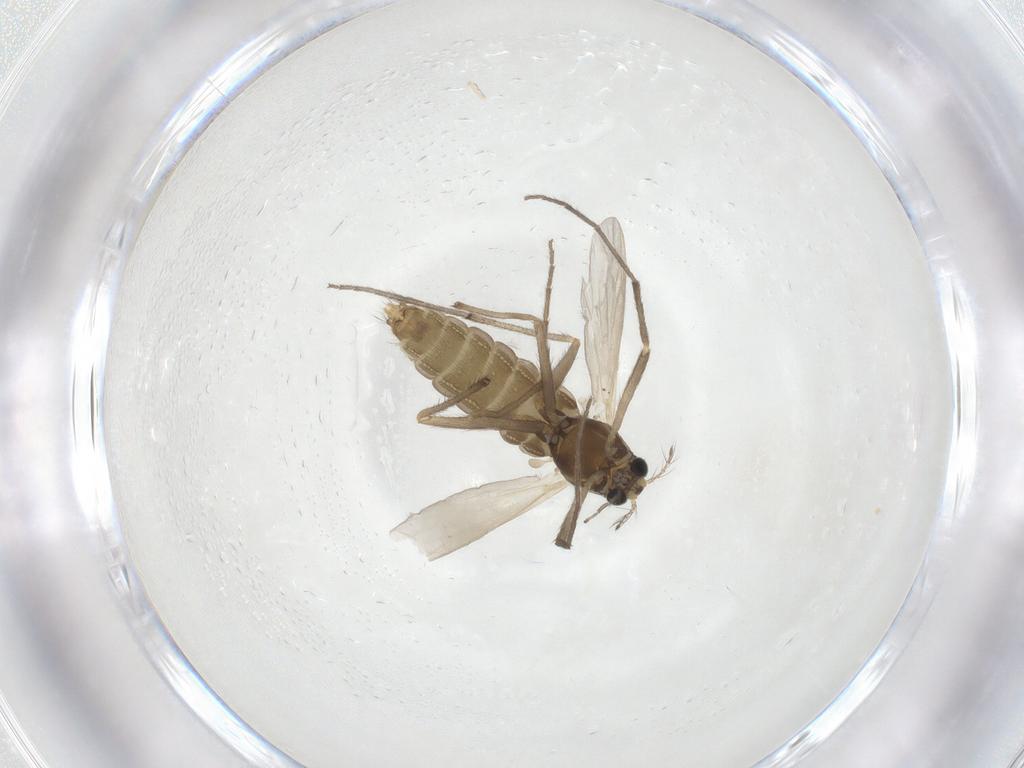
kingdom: Animalia
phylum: Arthropoda
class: Insecta
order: Diptera
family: Chironomidae
